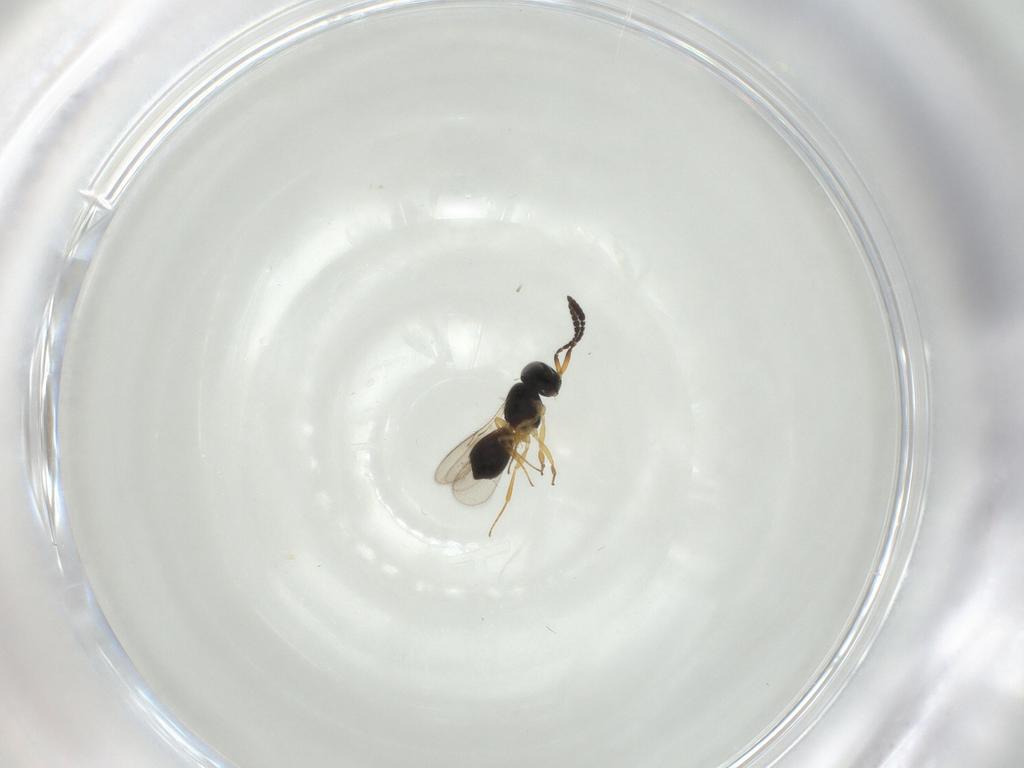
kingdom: Animalia
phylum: Arthropoda
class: Insecta
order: Hymenoptera
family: Scelionidae
